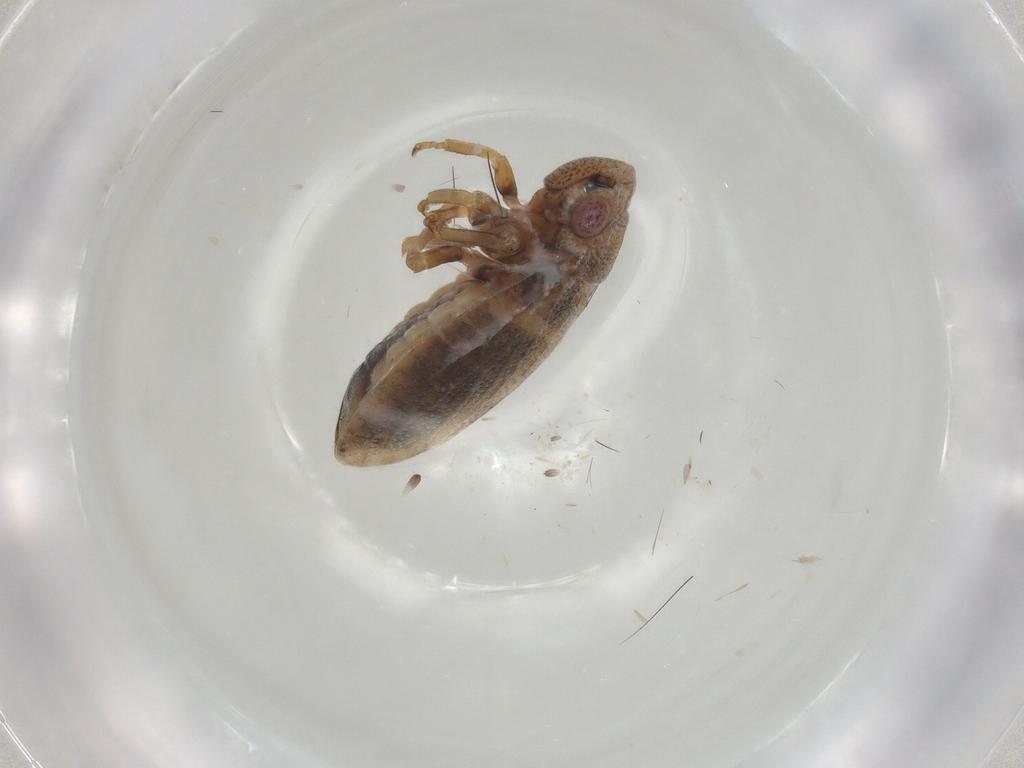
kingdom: Animalia
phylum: Arthropoda
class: Insecta
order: Hemiptera
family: Cicadellidae
